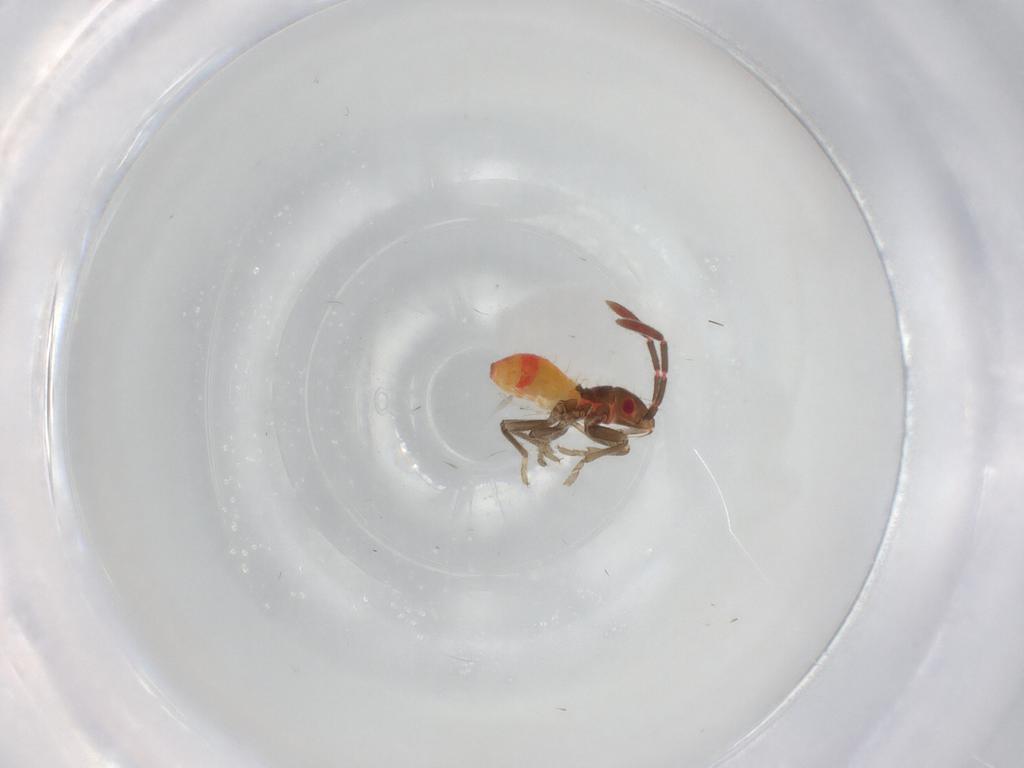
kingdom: Animalia
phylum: Arthropoda
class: Insecta
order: Hemiptera
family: Rhyparochromidae
